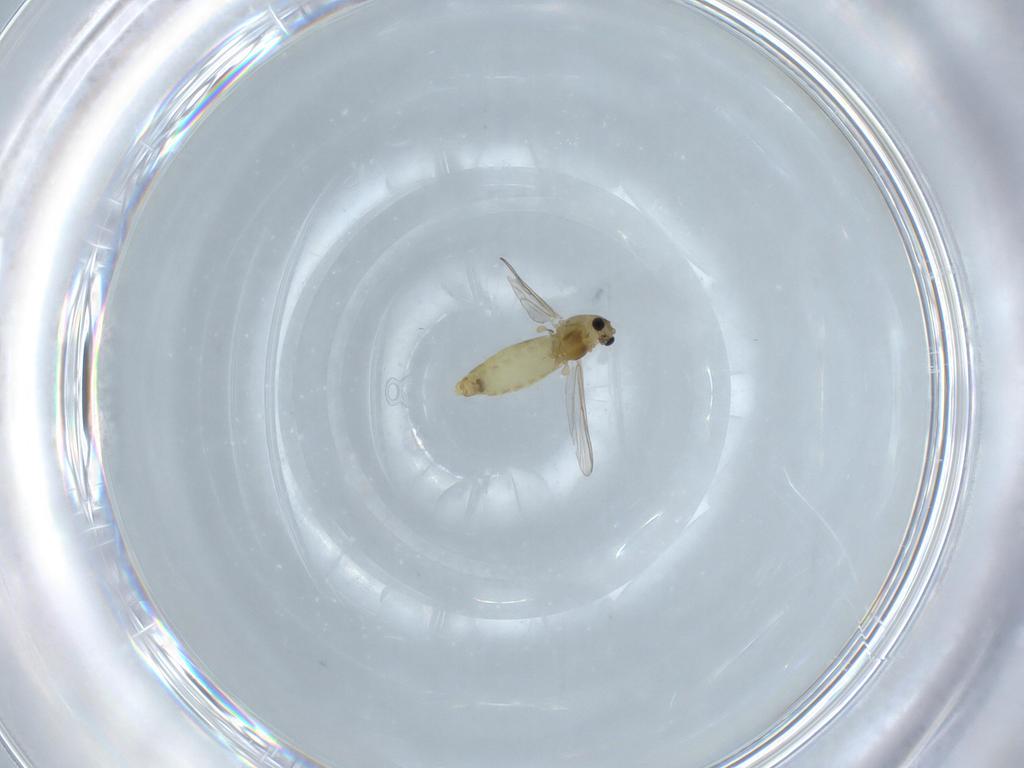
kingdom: Animalia
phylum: Arthropoda
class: Insecta
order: Diptera
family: Chironomidae
